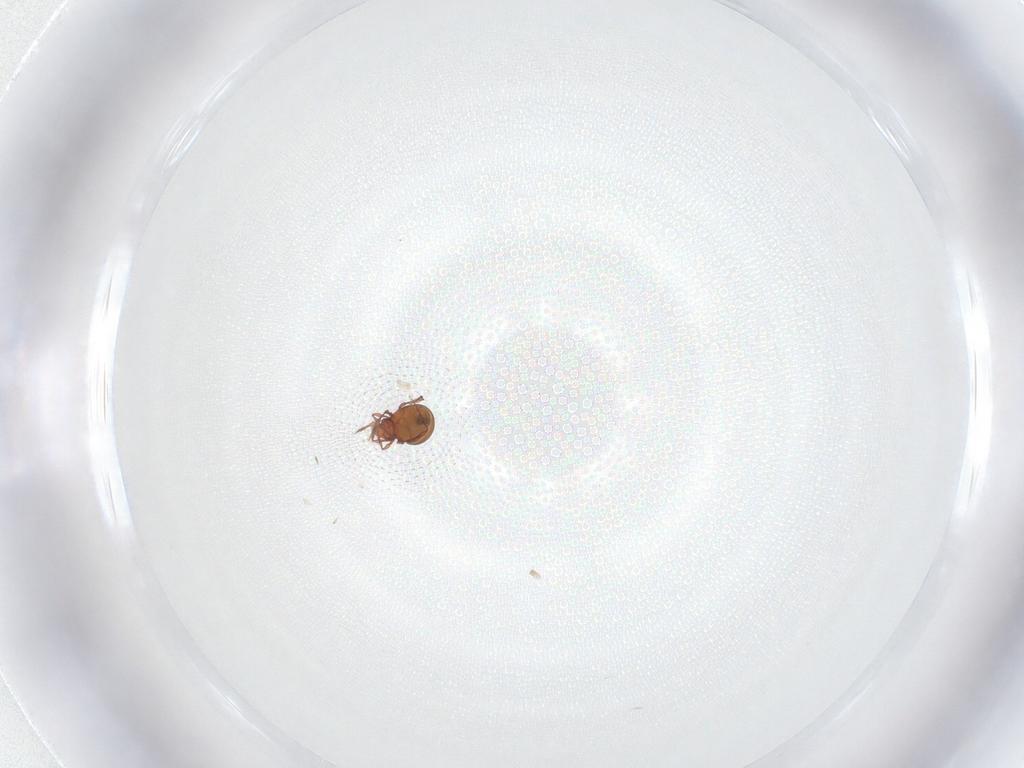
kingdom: Animalia
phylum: Arthropoda
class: Arachnida
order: Sarcoptiformes
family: Oppiidae
